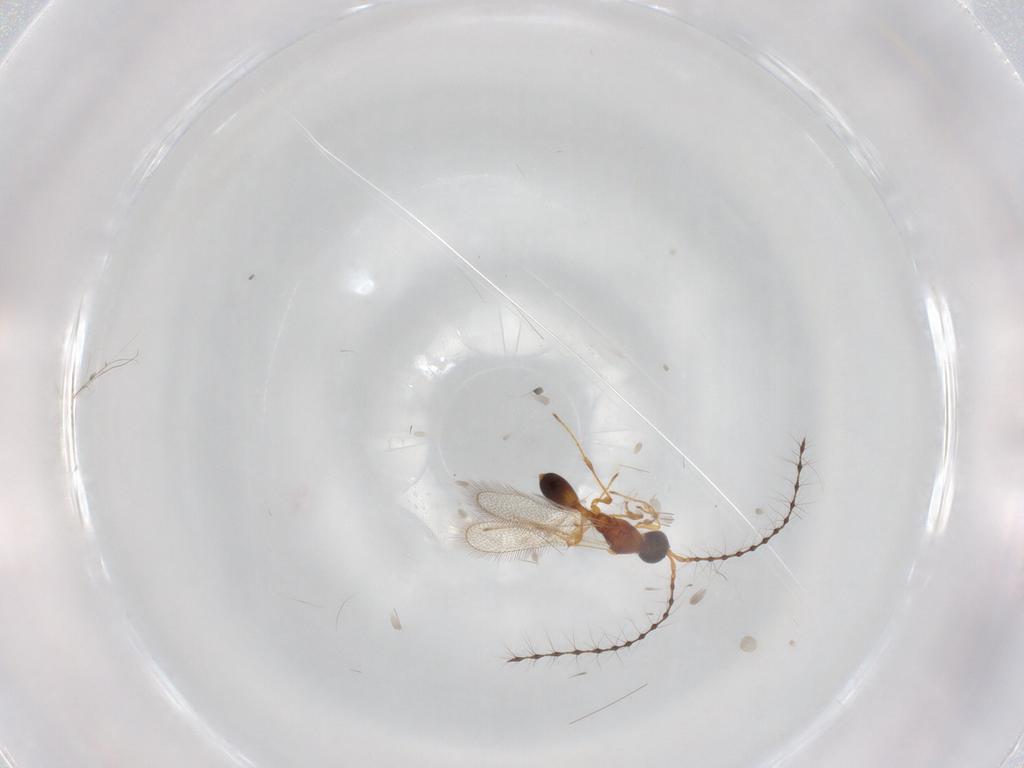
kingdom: Animalia
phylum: Arthropoda
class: Insecta
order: Hymenoptera
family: Diapriidae
